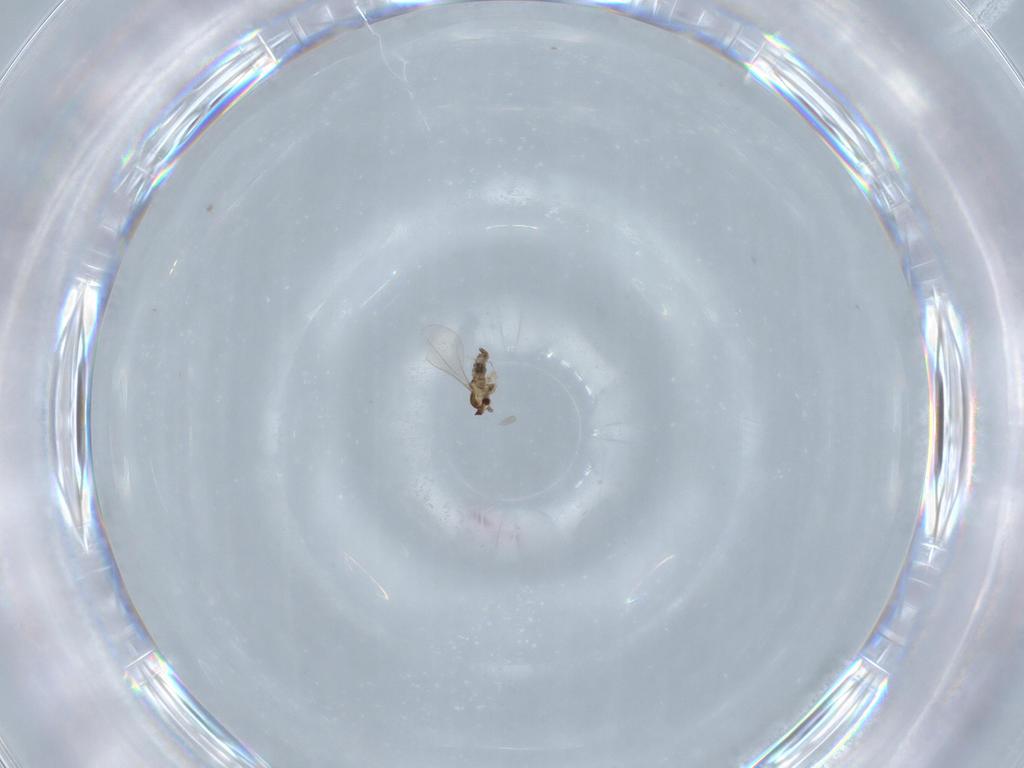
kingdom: Animalia
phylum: Arthropoda
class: Insecta
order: Diptera
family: Cecidomyiidae
